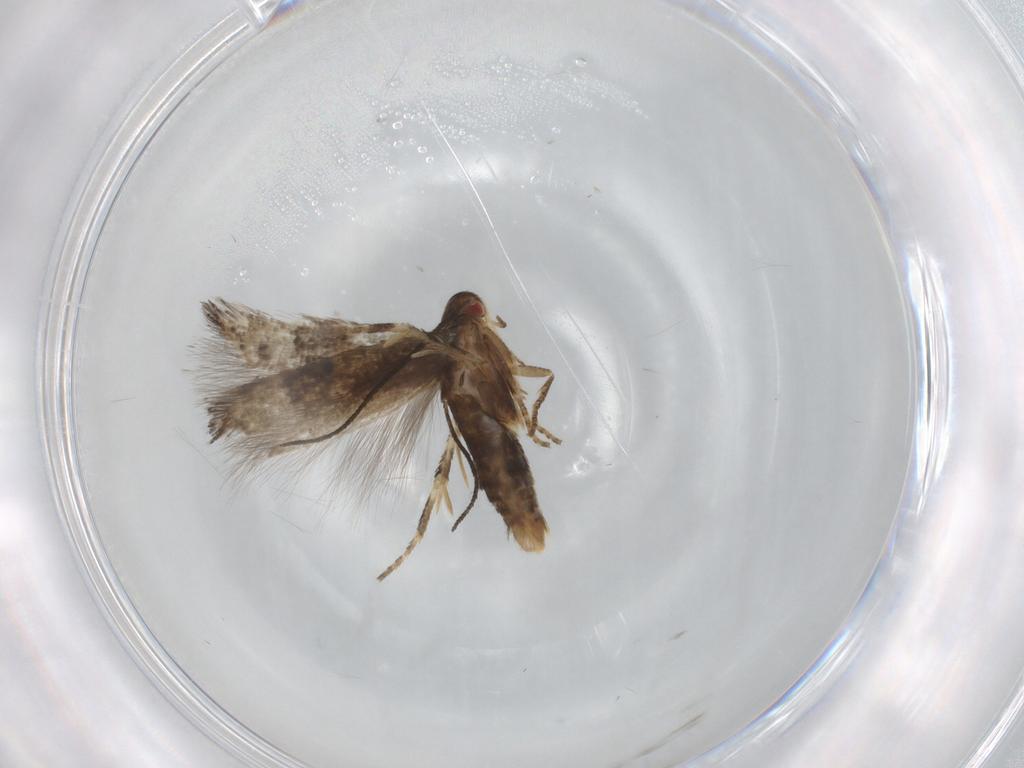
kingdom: Animalia
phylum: Arthropoda
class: Insecta
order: Lepidoptera
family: Momphidae
